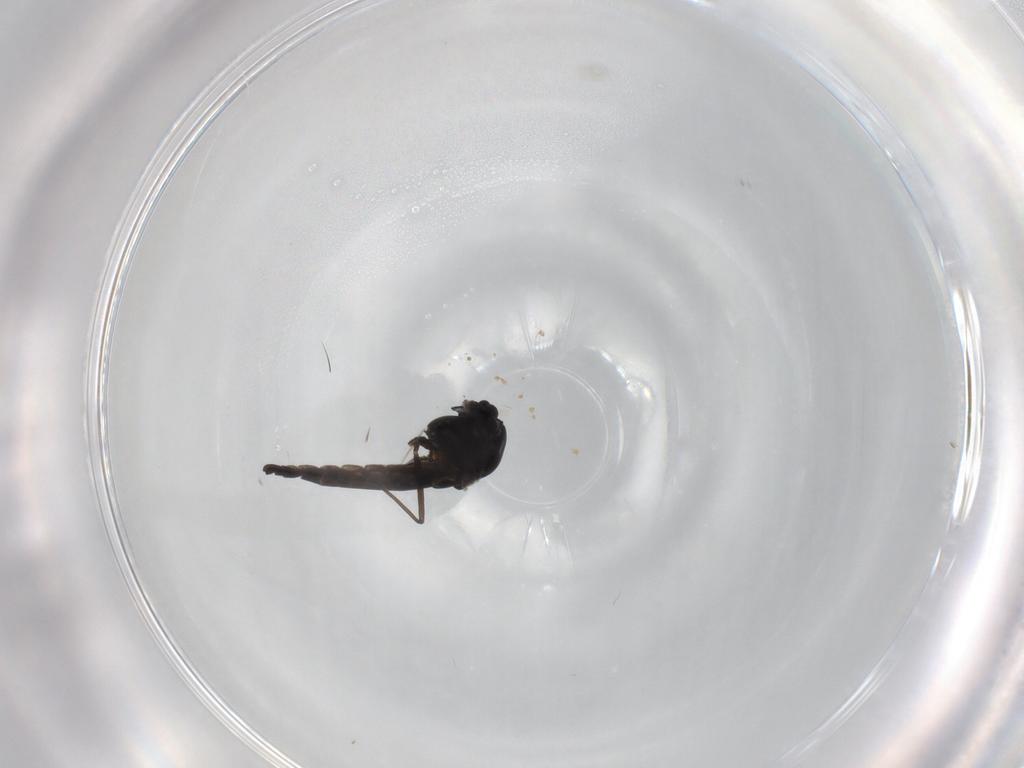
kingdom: Animalia
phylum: Arthropoda
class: Insecta
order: Diptera
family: Chironomidae
